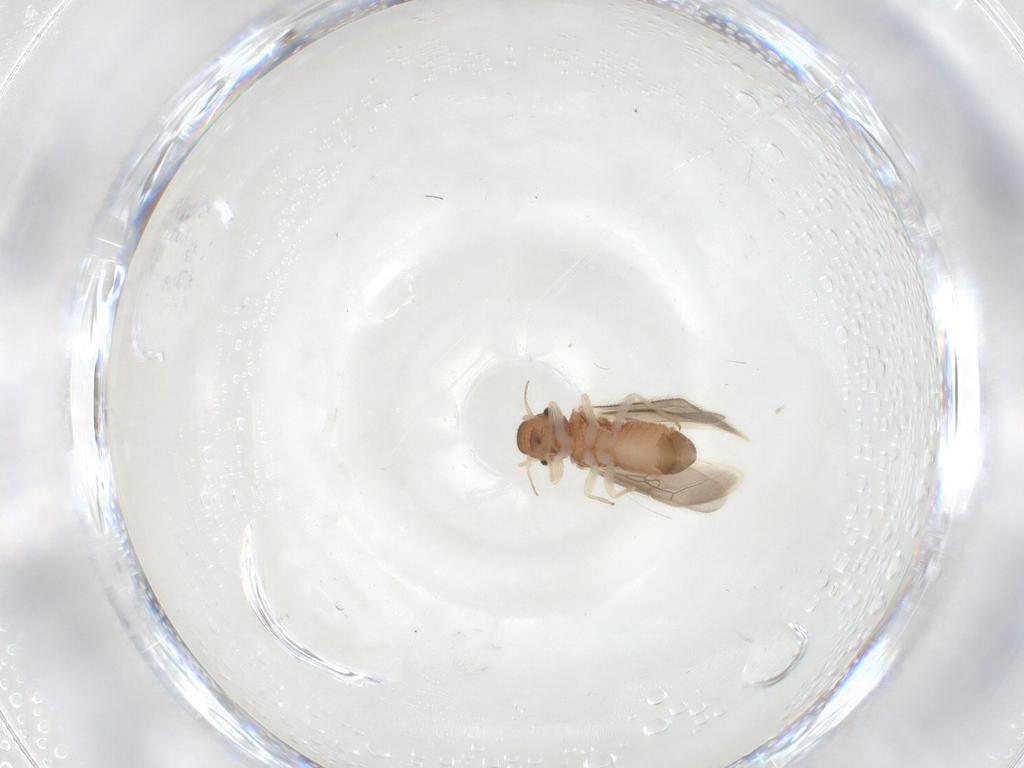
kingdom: Animalia
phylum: Arthropoda
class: Insecta
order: Psocodea
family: Archipsocidae
